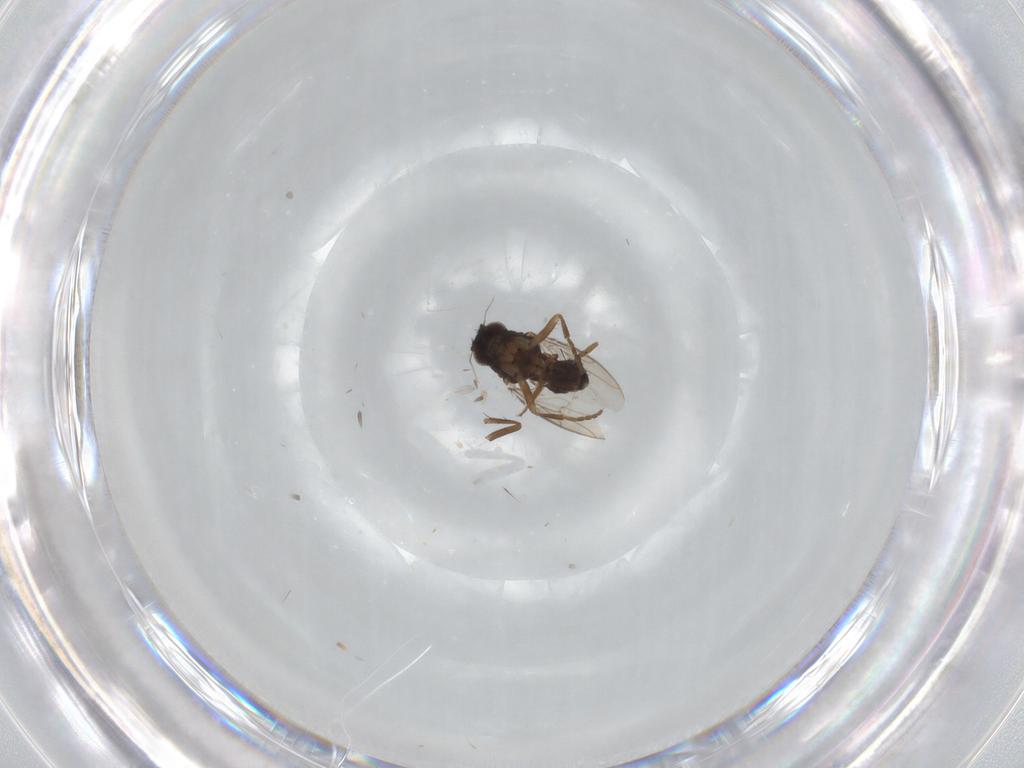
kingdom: Animalia
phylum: Arthropoda
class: Insecta
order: Diptera
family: Sphaeroceridae
